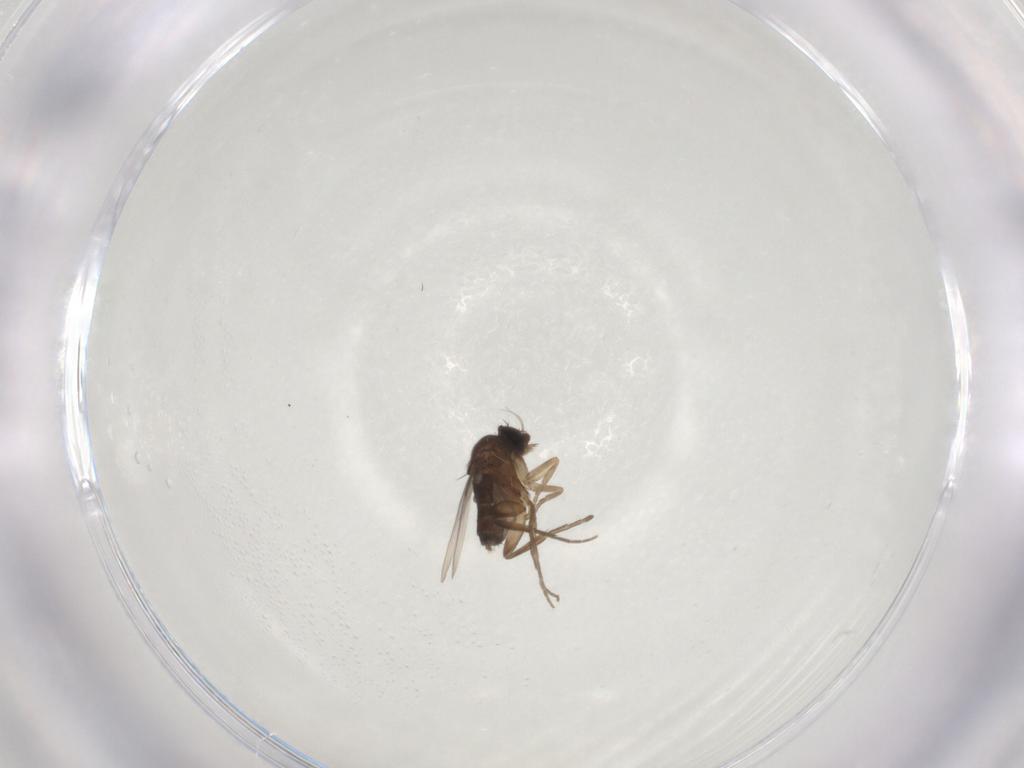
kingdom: Animalia
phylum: Arthropoda
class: Insecta
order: Diptera
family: Phoridae
